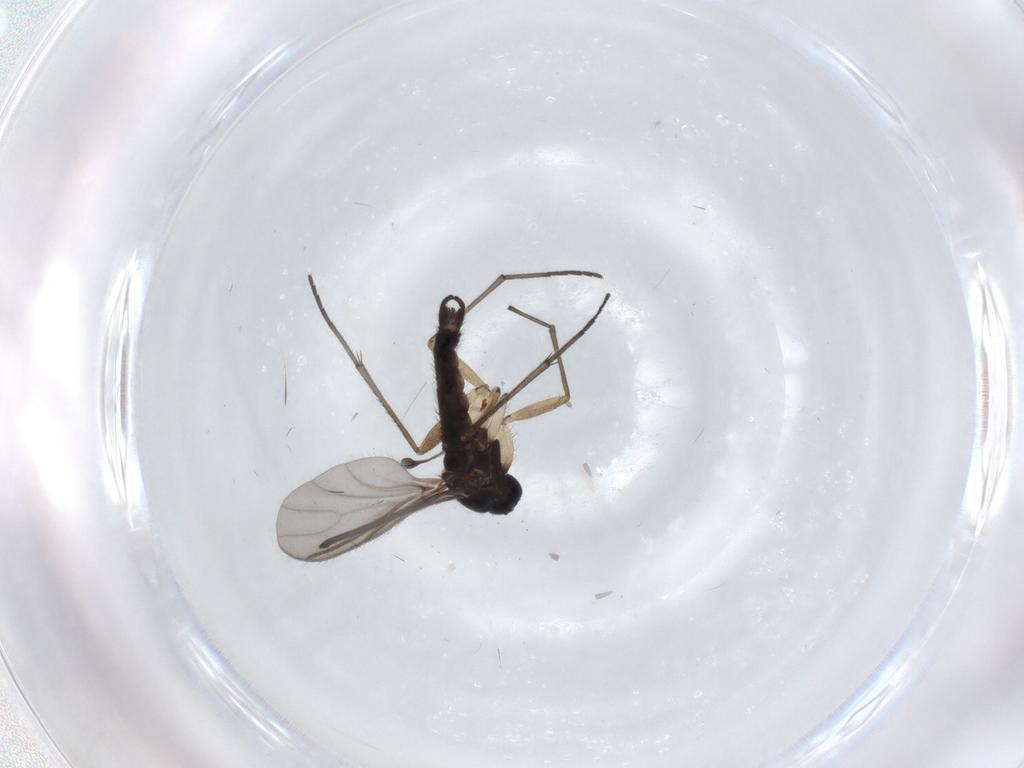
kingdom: Animalia
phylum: Arthropoda
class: Insecta
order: Diptera
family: Sciaridae
